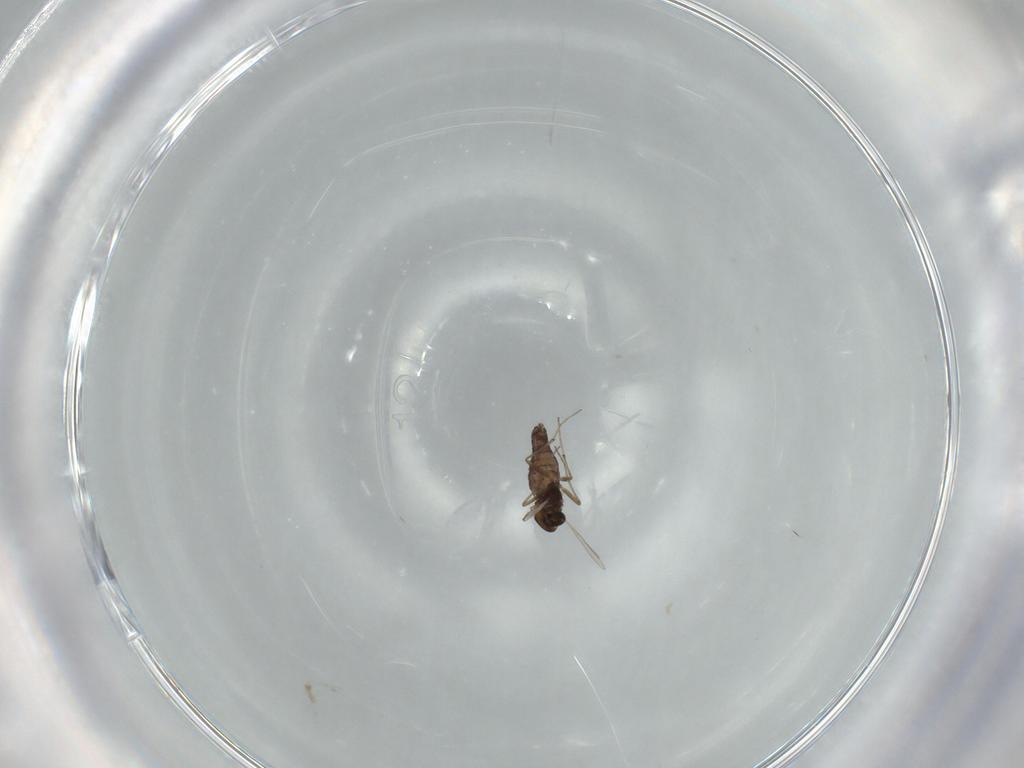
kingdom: Animalia
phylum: Arthropoda
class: Insecta
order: Diptera
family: Chironomidae
